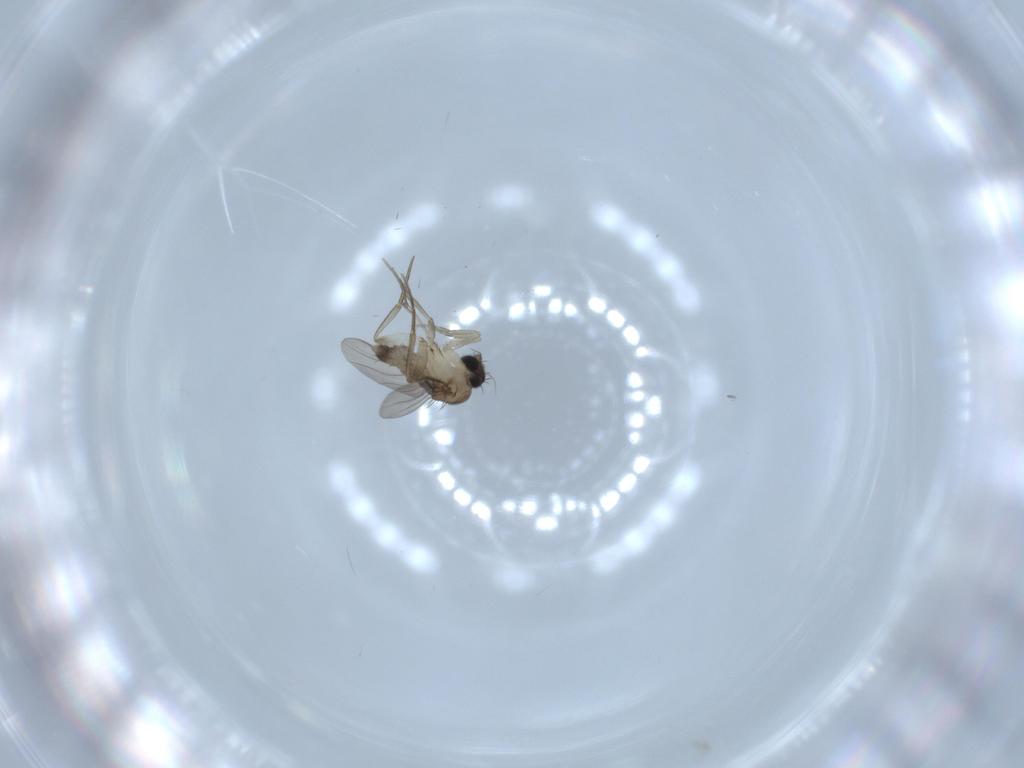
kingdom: Animalia
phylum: Arthropoda
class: Insecta
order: Diptera
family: Phoridae
